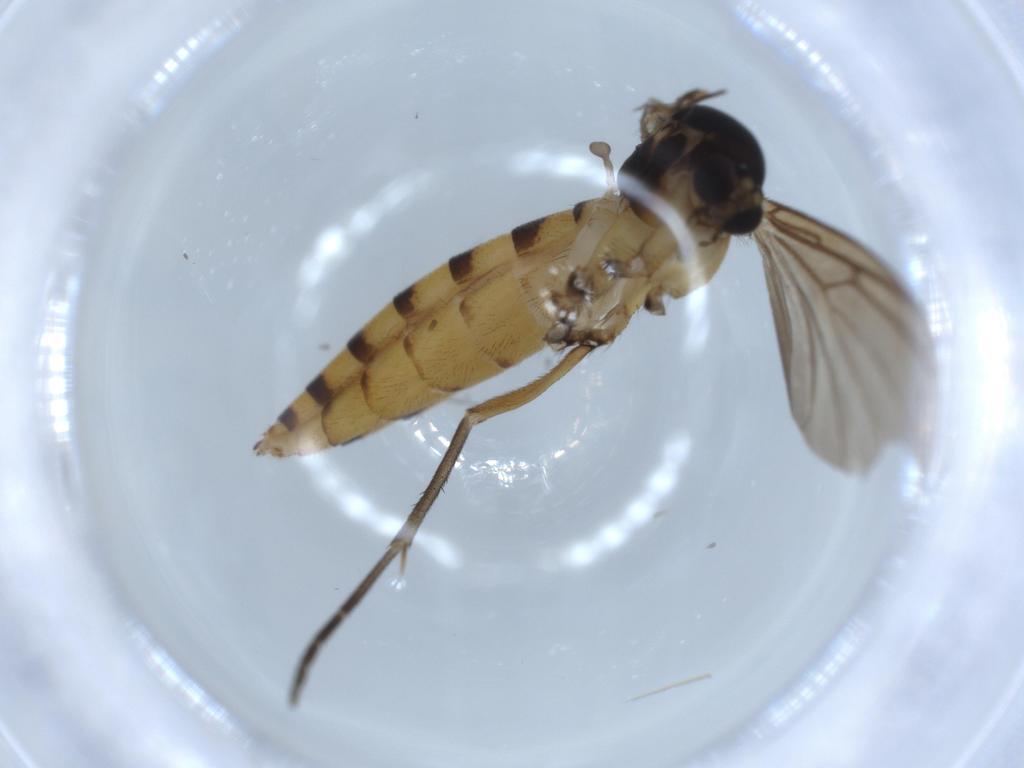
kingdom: Animalia
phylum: Arthropoda
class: Insecta
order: Diptera
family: Mycetophilidae
